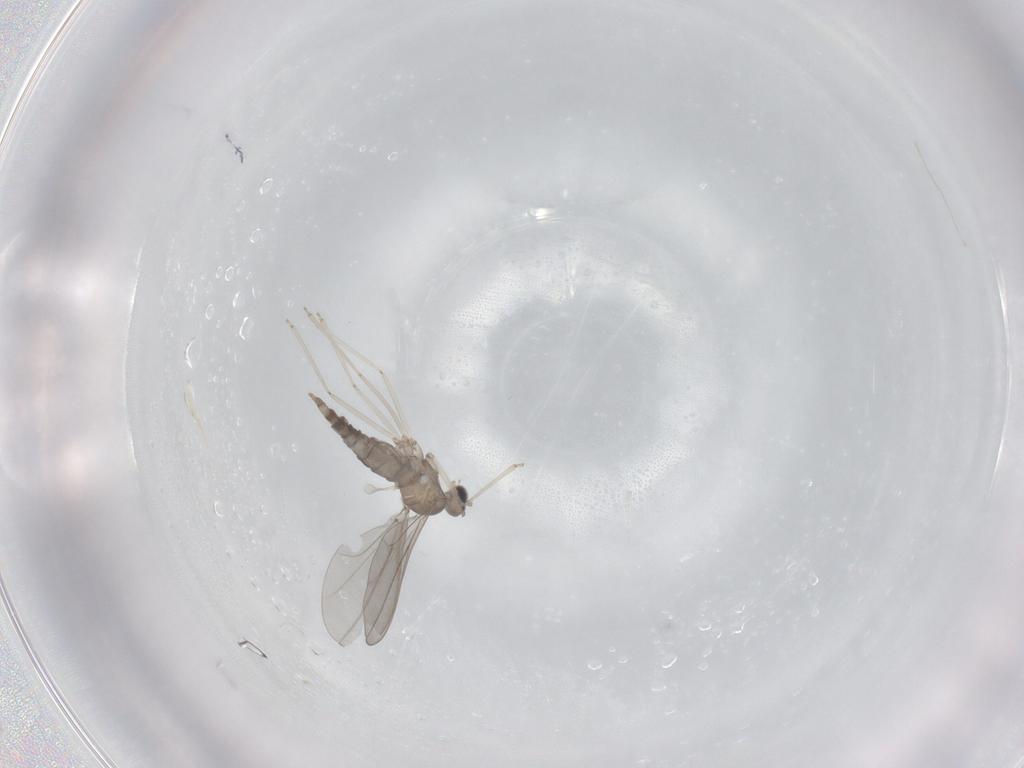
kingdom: Animalia
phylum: Arthropoda
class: Insecta
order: Diptera
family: Cecidomyiidae
